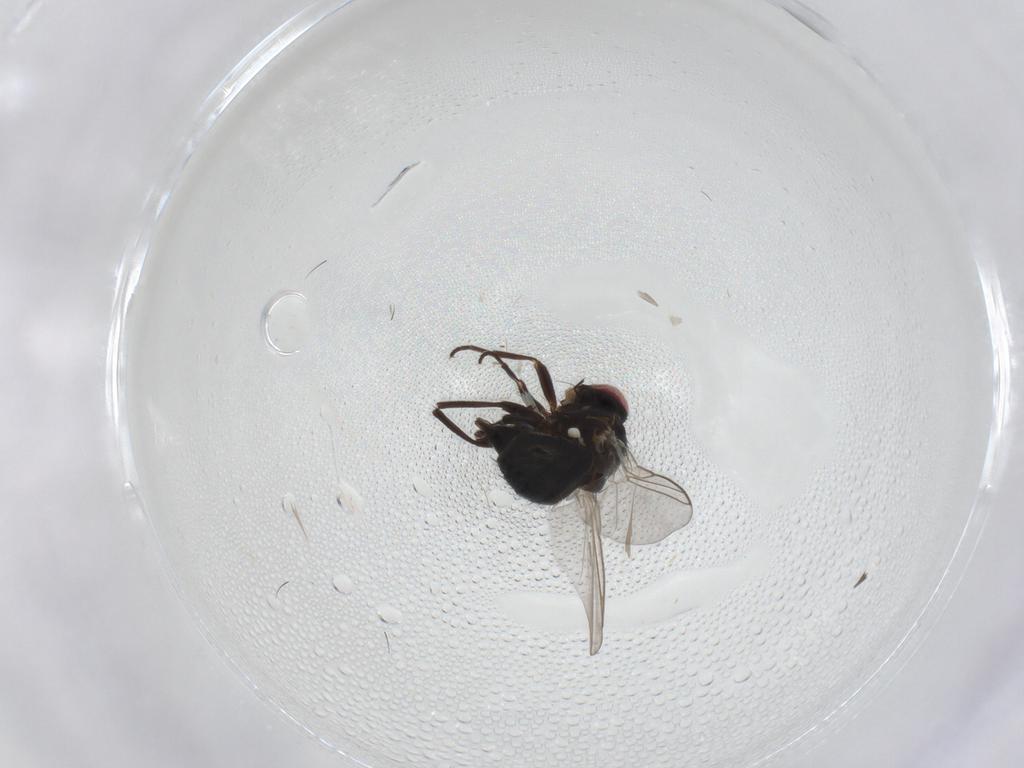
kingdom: Animalia
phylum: Arthropoda
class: Insecta
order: Diptera
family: Agromyzidae
